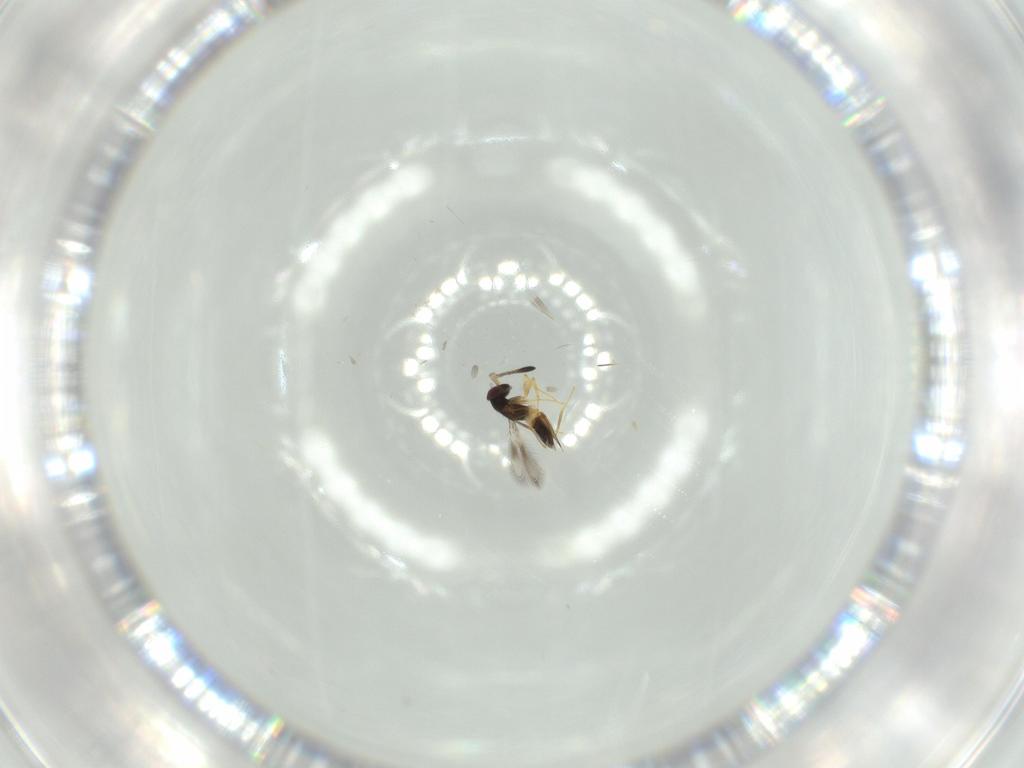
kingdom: Animalia
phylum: Arthropoda
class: Insecta
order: Hymenoptera
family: Mymaridae
